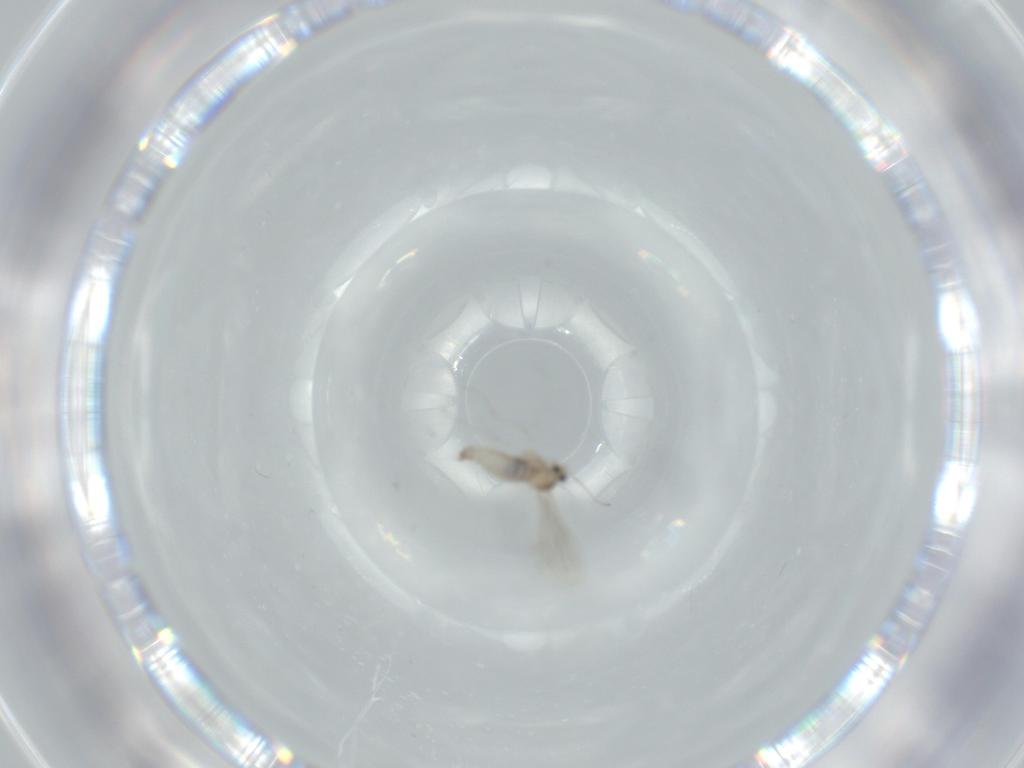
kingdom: Animalia
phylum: Arthropoda
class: Insecta
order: Diptera
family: Cecidomyiidae
